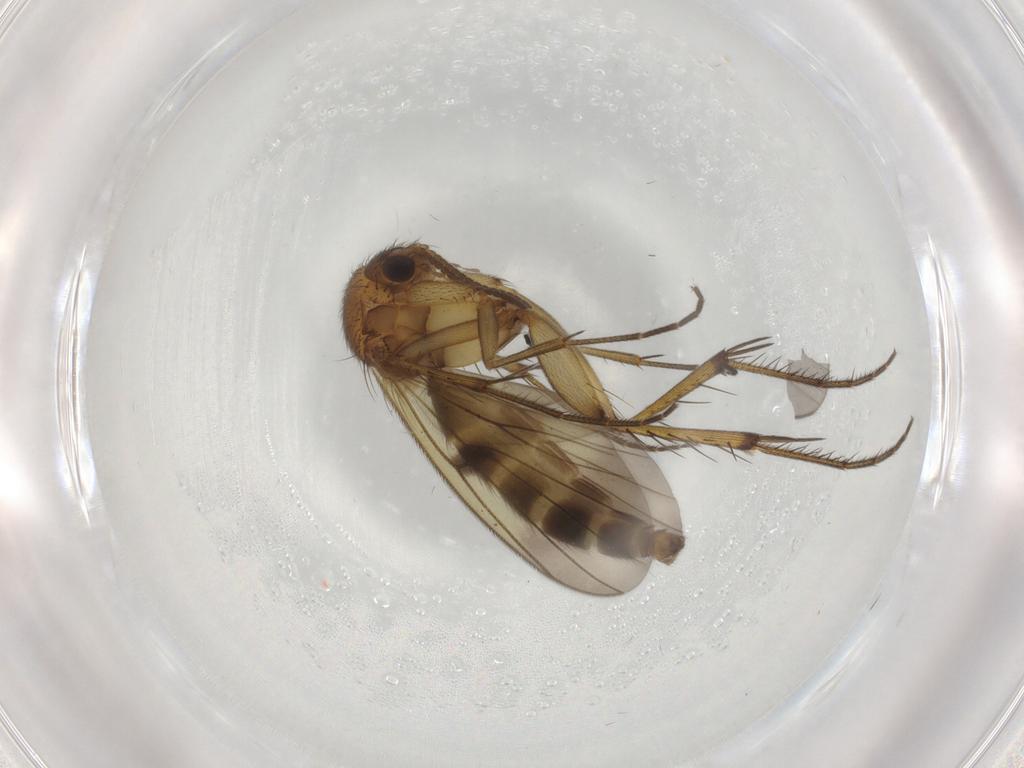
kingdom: Animalia
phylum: Arthropoda
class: Insecta
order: Diptera
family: Mycetophilidae
